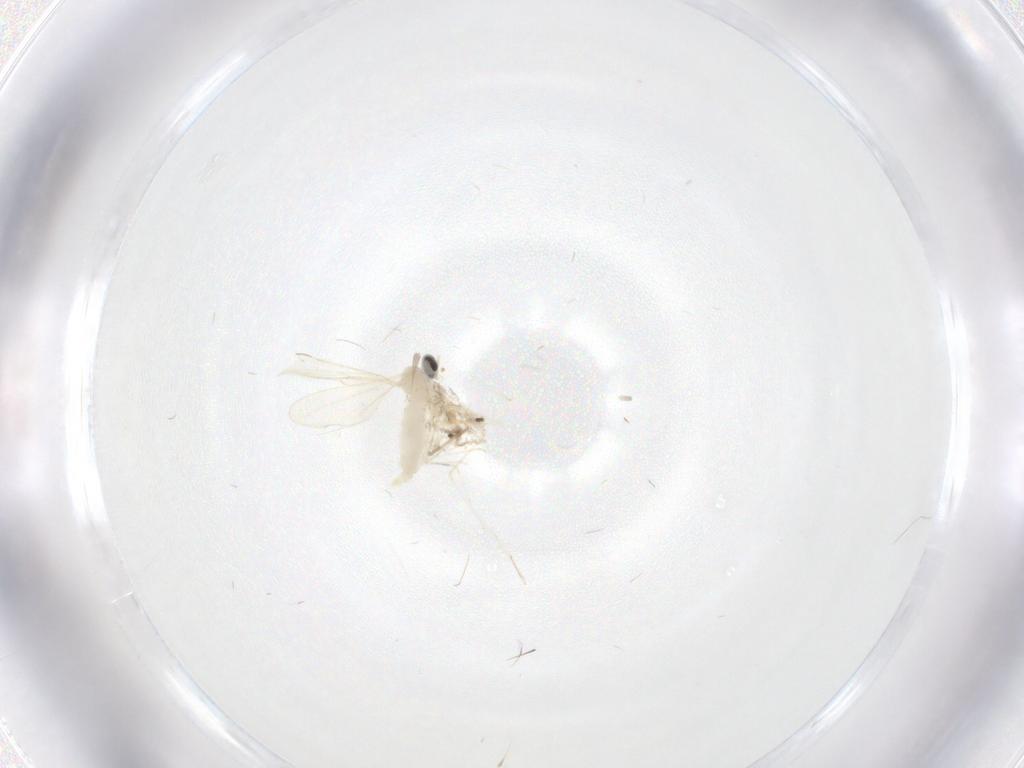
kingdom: Animalia
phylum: Arthropoda
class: Insecta
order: Diptera
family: Cecidomyiidae
